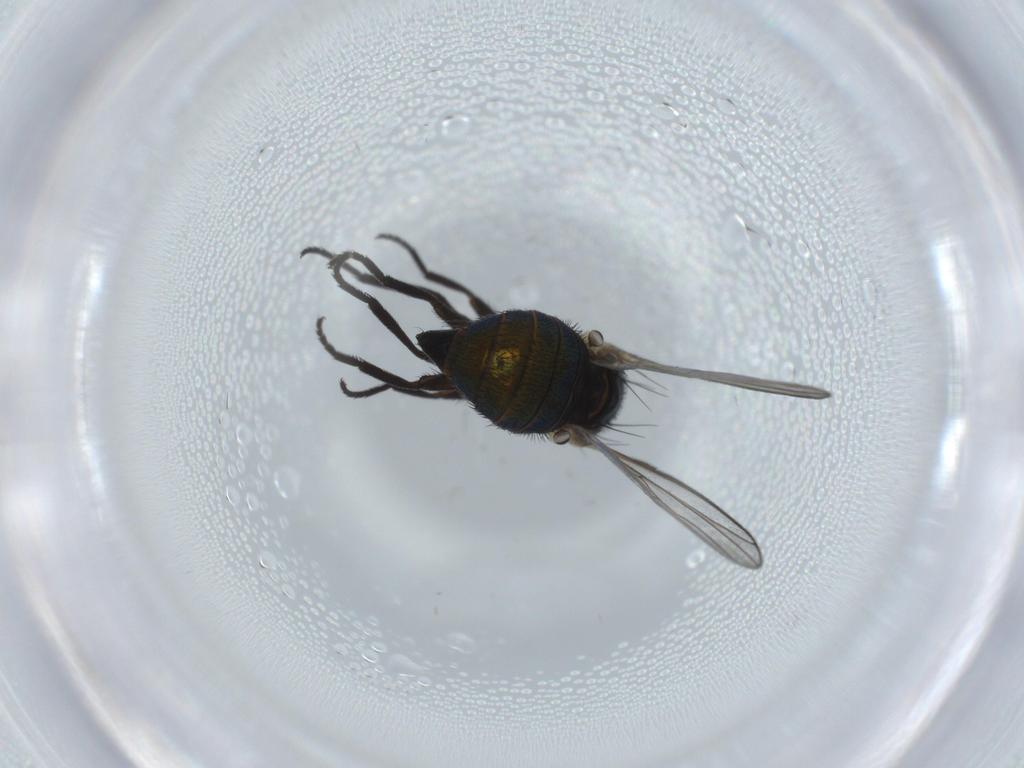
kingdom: Animalia
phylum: Arthropoda
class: Insecta
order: Diptera
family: Agromyzidae
